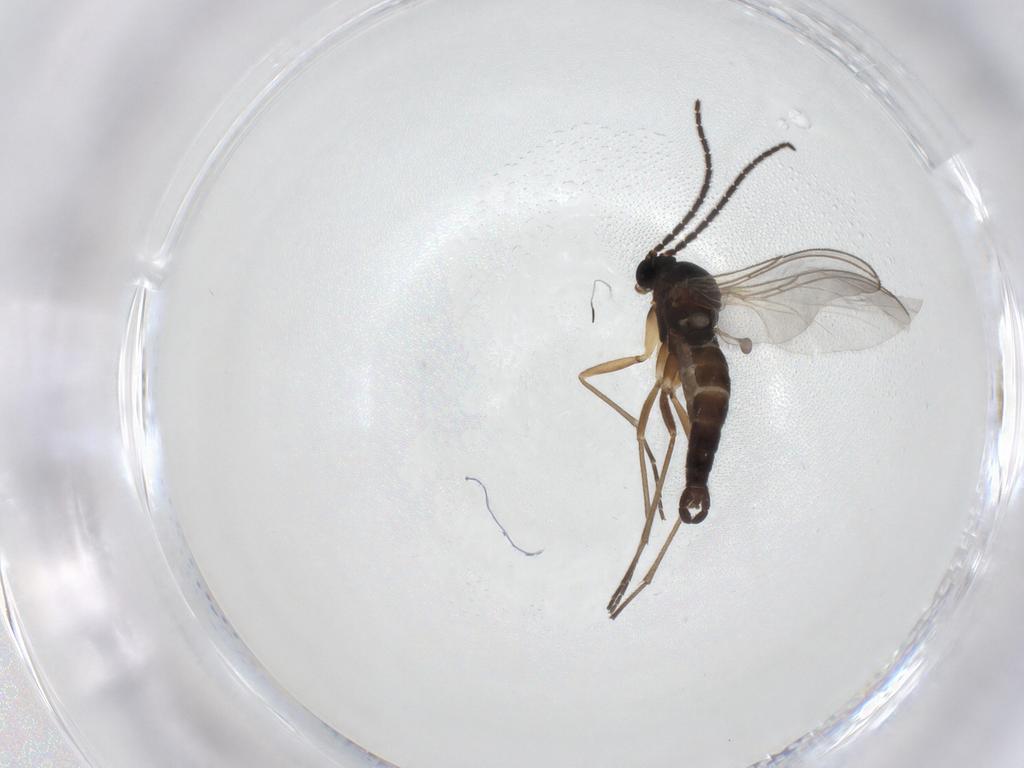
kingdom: Animalia
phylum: Arthropoda
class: Insecta
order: Diptera
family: Sciaridae
